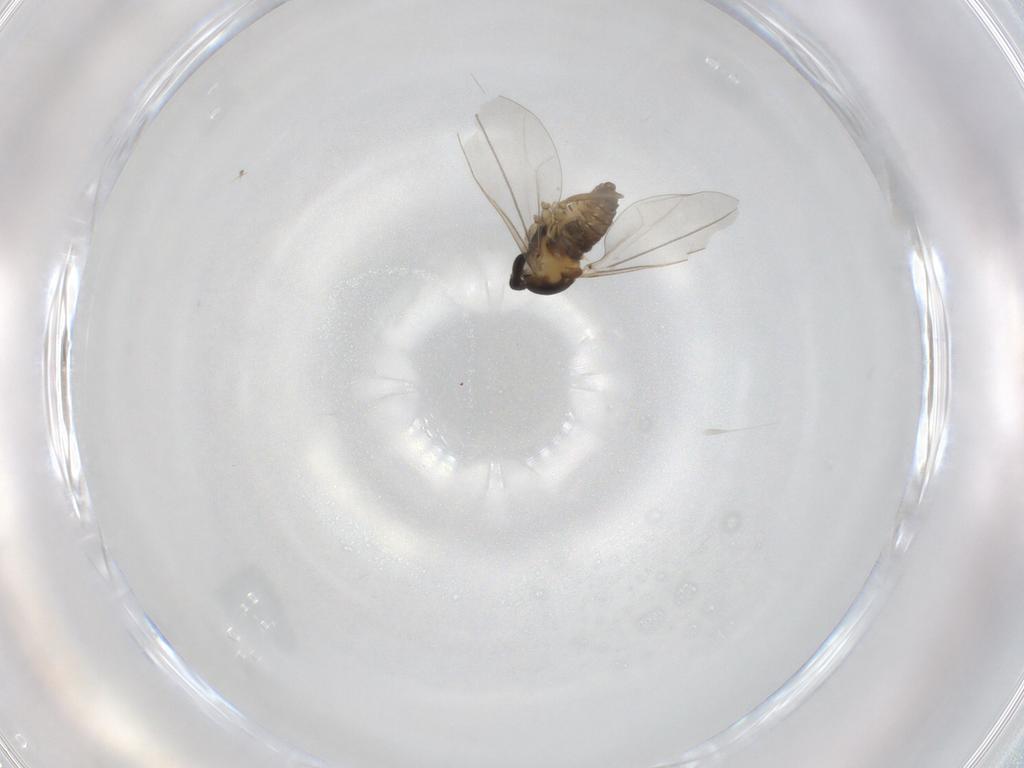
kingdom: Animalia
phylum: Arthropoda
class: Insecta
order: Diptera
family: Cecidomyiidae
